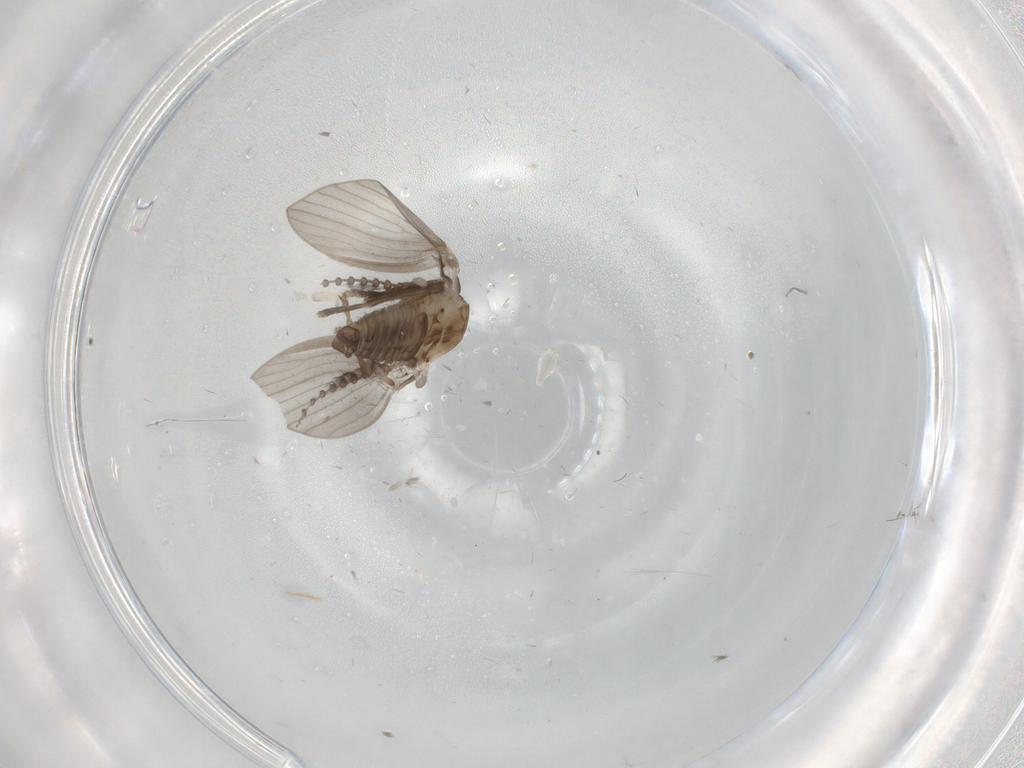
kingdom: Animalia
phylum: Arthropoda
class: Insecta
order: Diptera
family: Psychodidae
